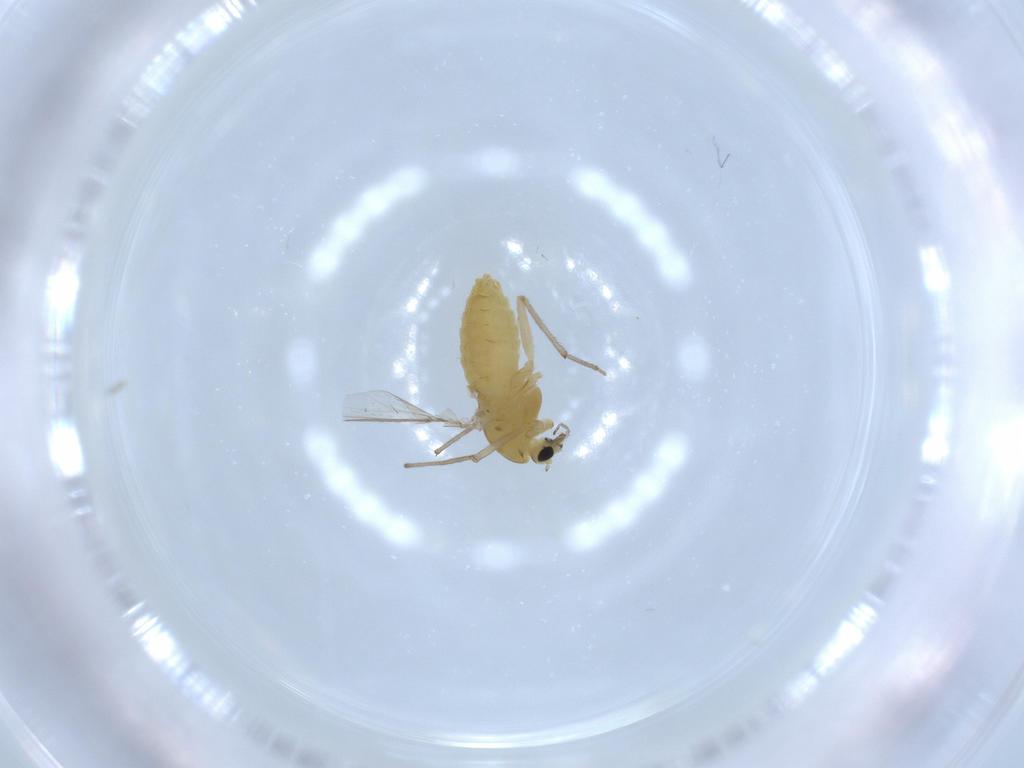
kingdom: Animalia
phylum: Arthropoda
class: Insecta
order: Diptera
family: Chironomidae
